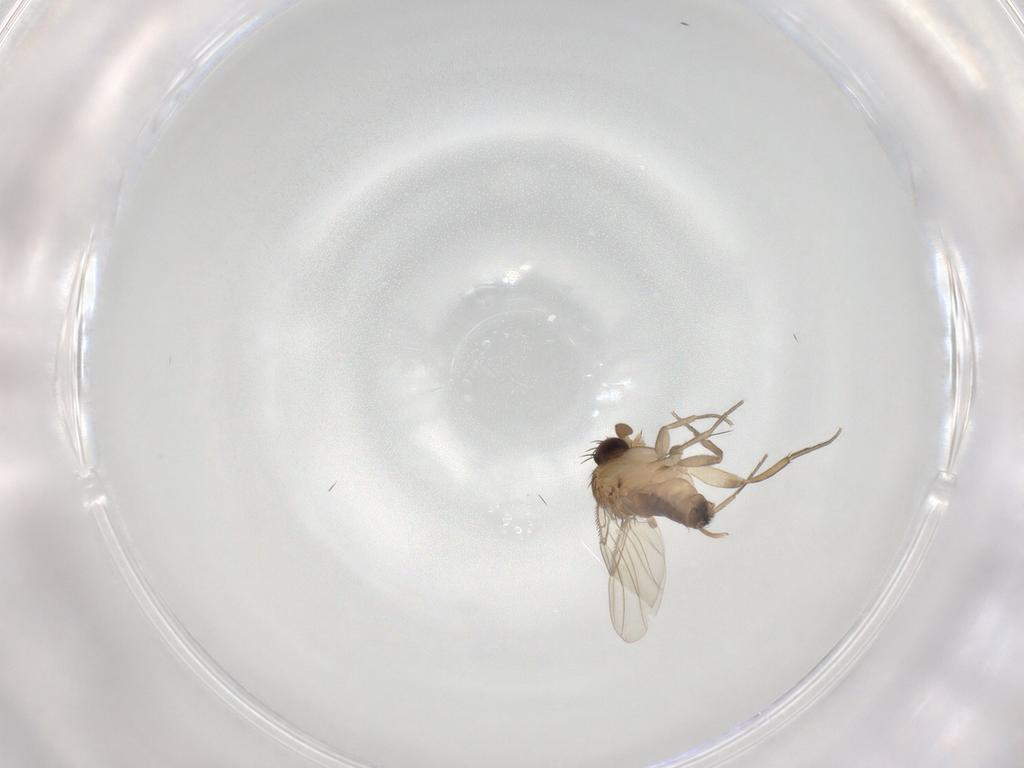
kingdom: Animalia
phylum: Arthropoda
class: Insecta
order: Diptera
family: Phoridae
